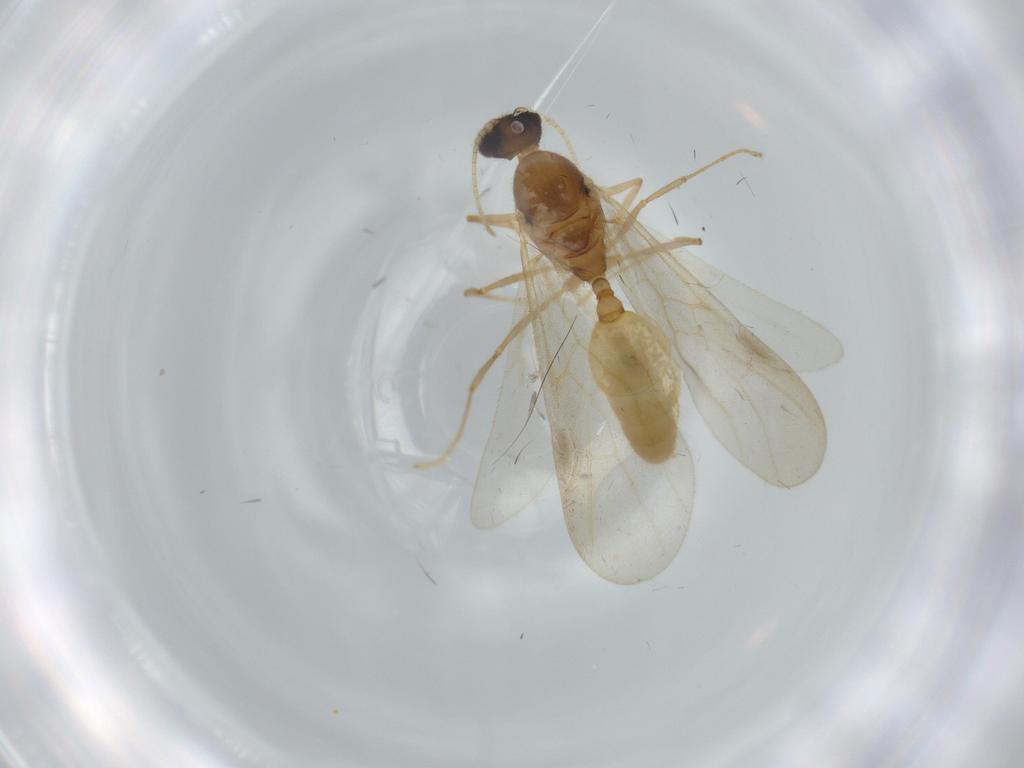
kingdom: Animalia
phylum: Arthropoda
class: Insecta
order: Hymenoptera
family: Formicidae
